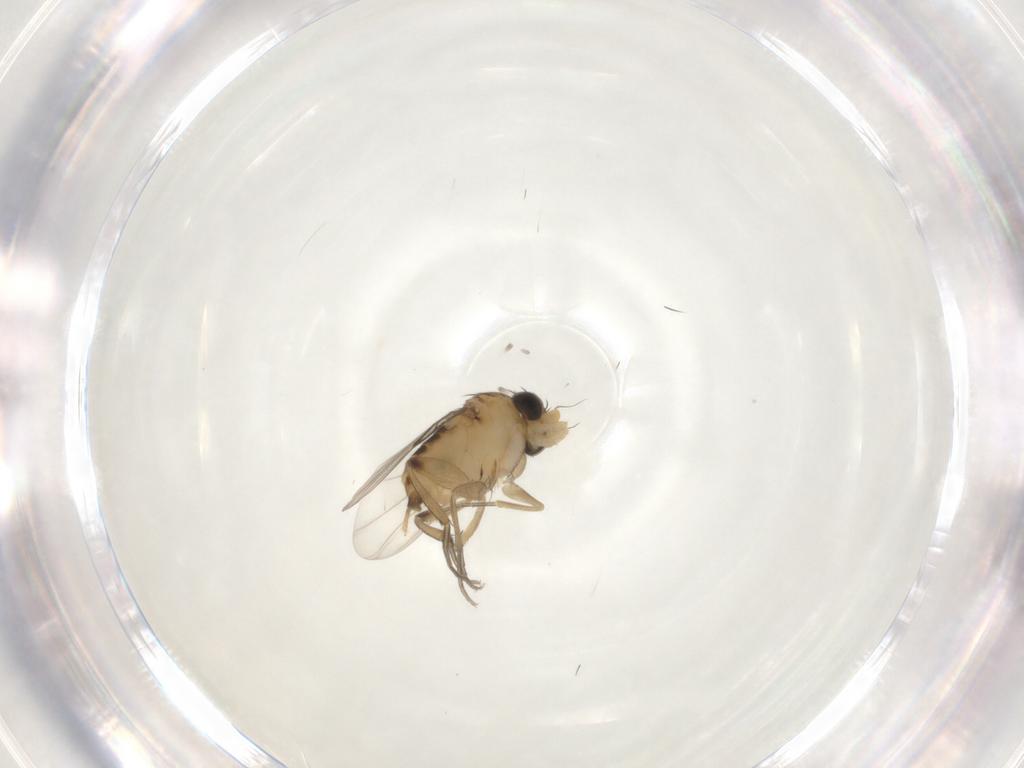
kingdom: Animalia
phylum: Arthropoda
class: Insecta
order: Diptera
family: Phoridae
